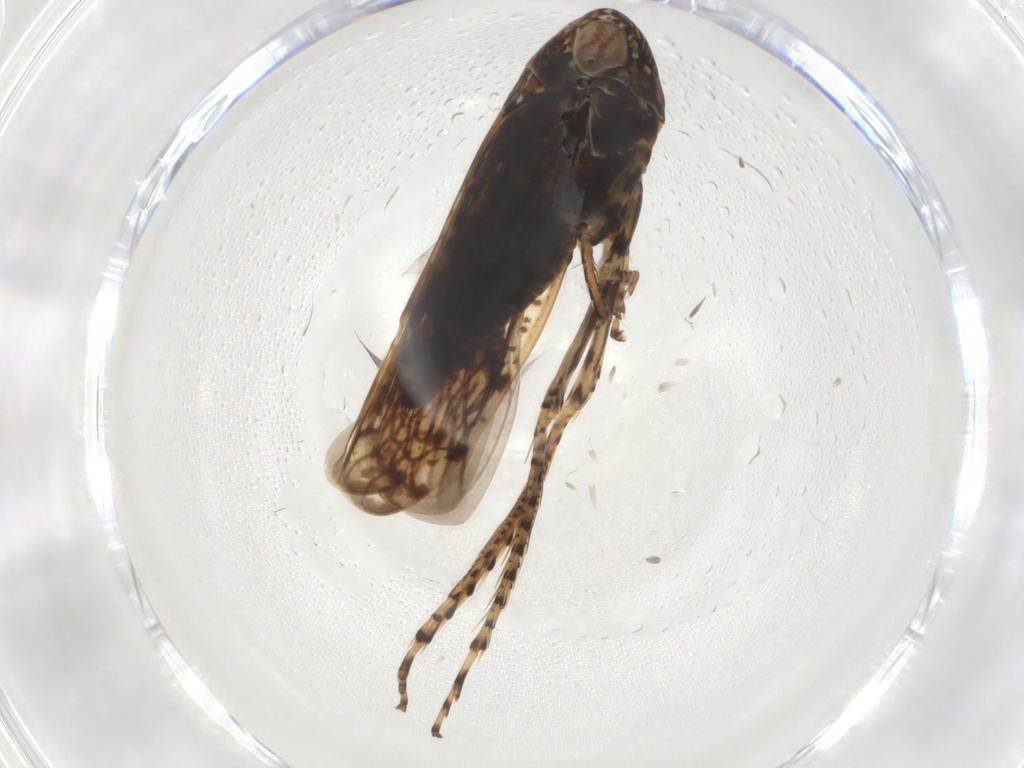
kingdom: Animalia
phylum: Arthropoda
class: Insecta
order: Hemiptera
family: Cicadellidae
